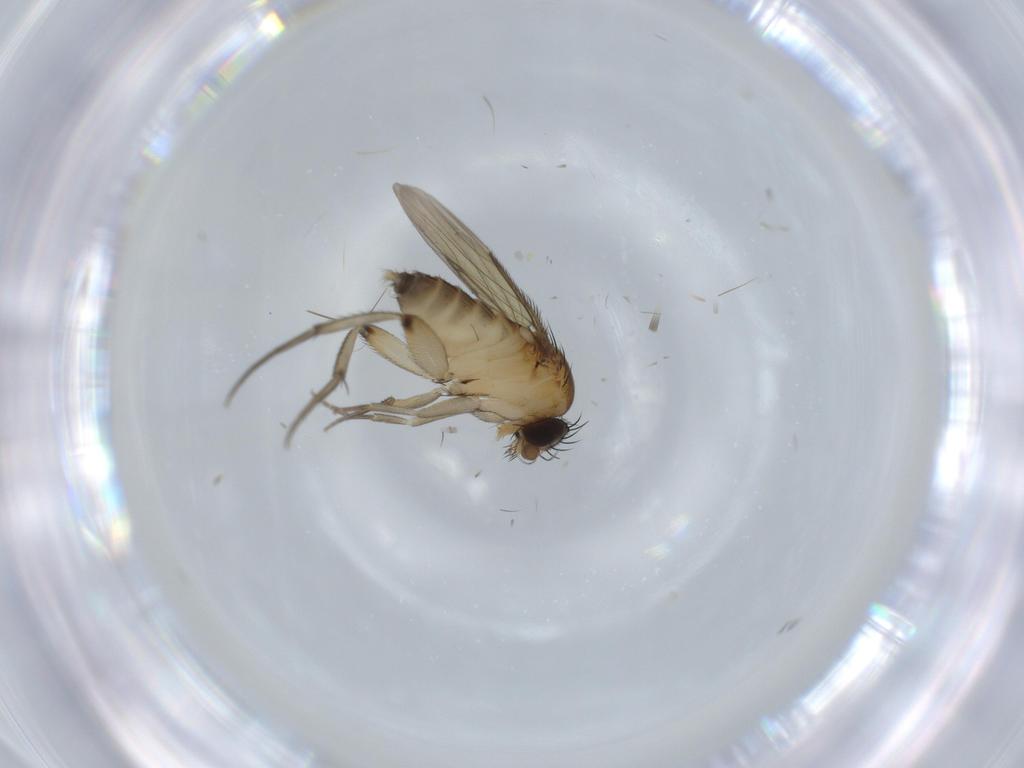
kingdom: Animalia
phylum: Arthropoda
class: Insecta
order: Diptera
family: Phoridae
